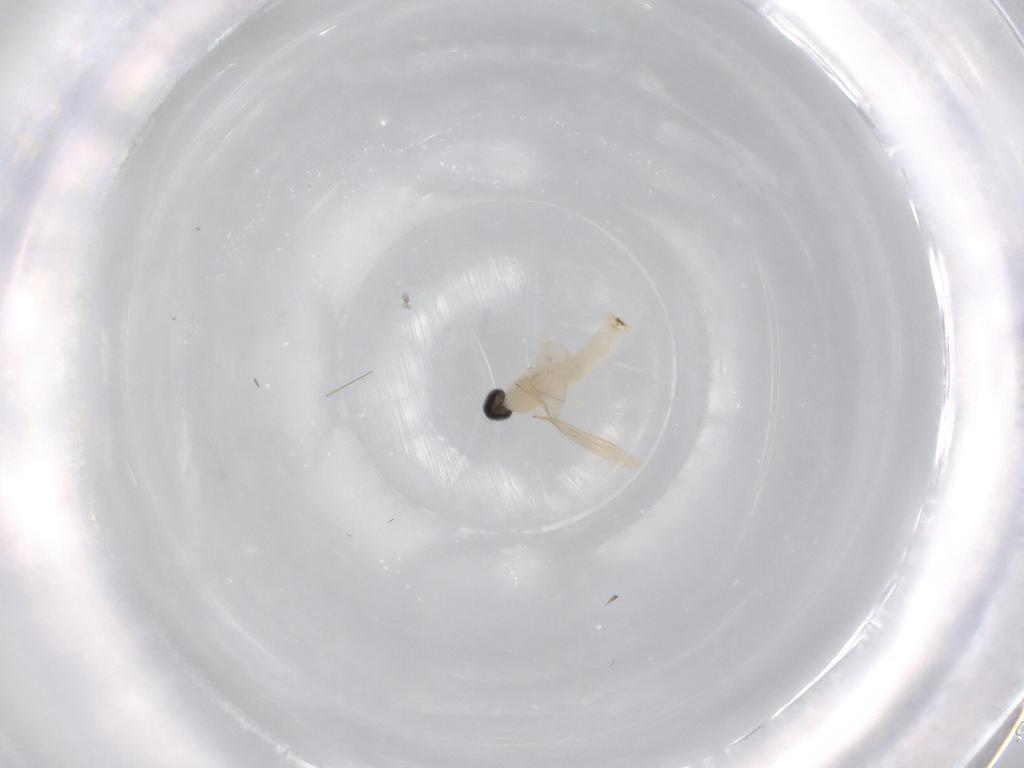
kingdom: Animalia
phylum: Arthropoda
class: Insecta
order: Diptera
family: Cecidomyiidae
